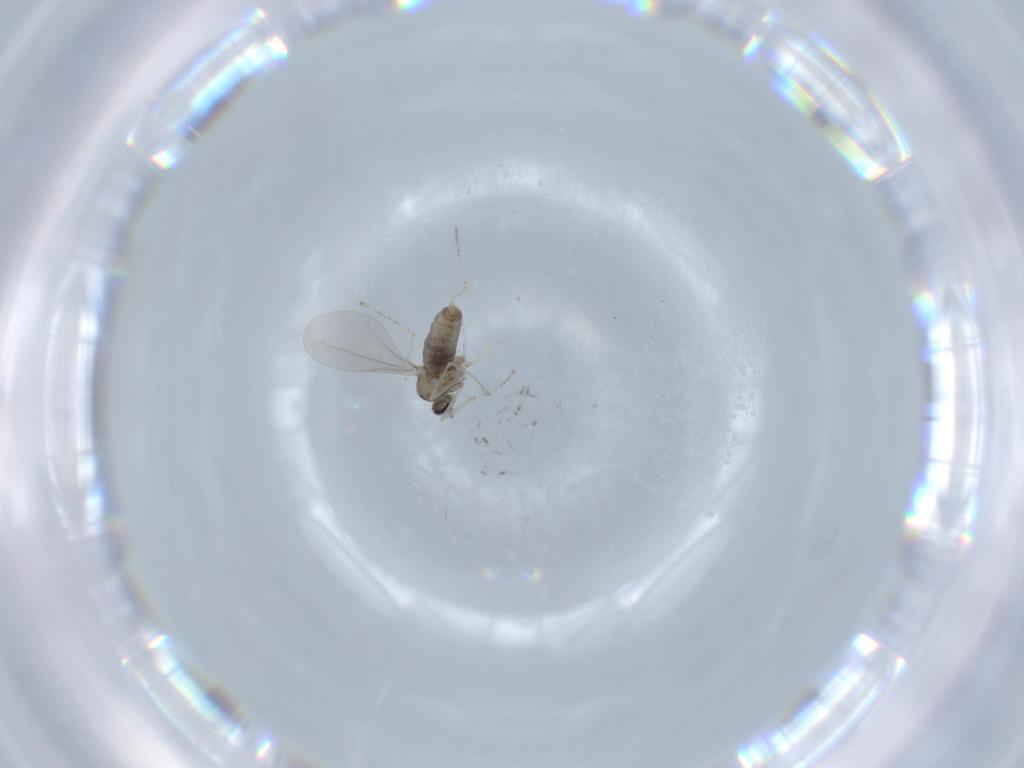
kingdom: Animalia
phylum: Arthropoda
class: Insecta
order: Diptera
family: Cecidomyiidae
